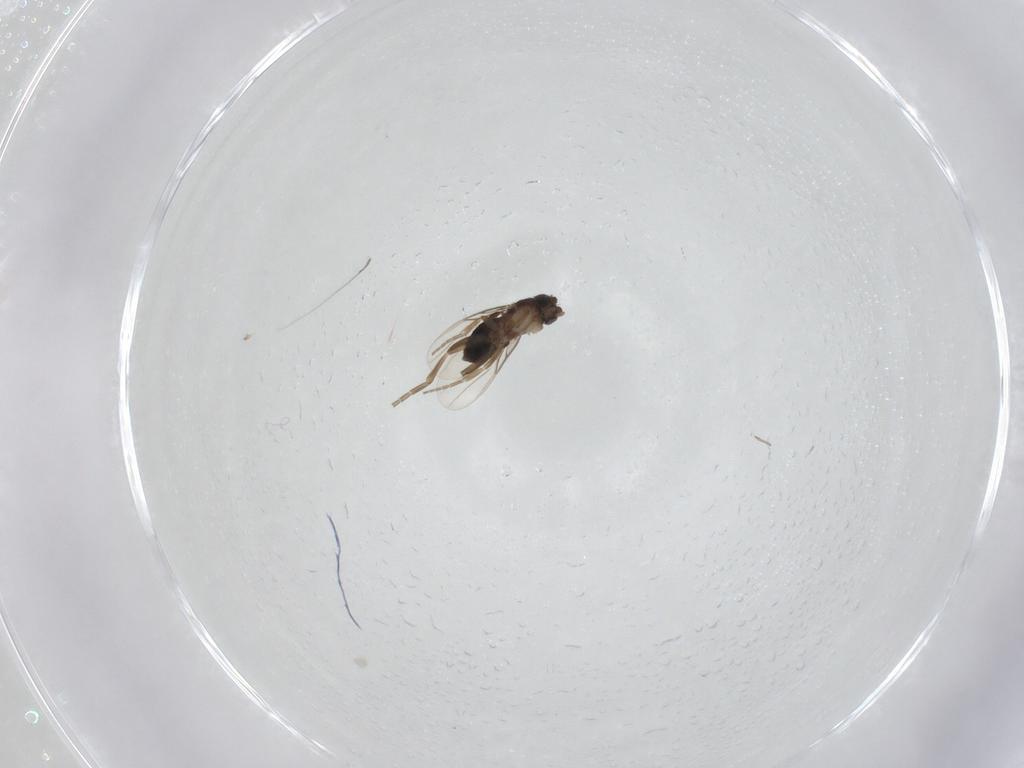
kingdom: Animalia
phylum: Arthropoda
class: Insecta
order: Diptera
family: Phoridae
